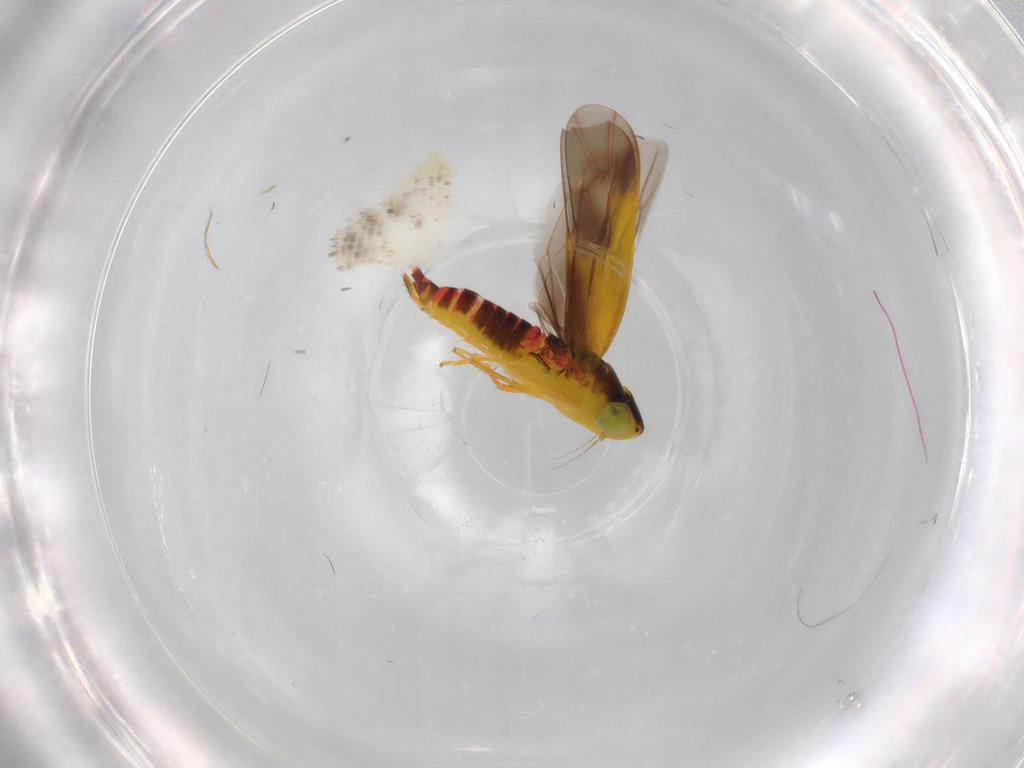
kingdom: Animalia
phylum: Arthropoda
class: Insecta
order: Hemiptera
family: Cicadellidae
